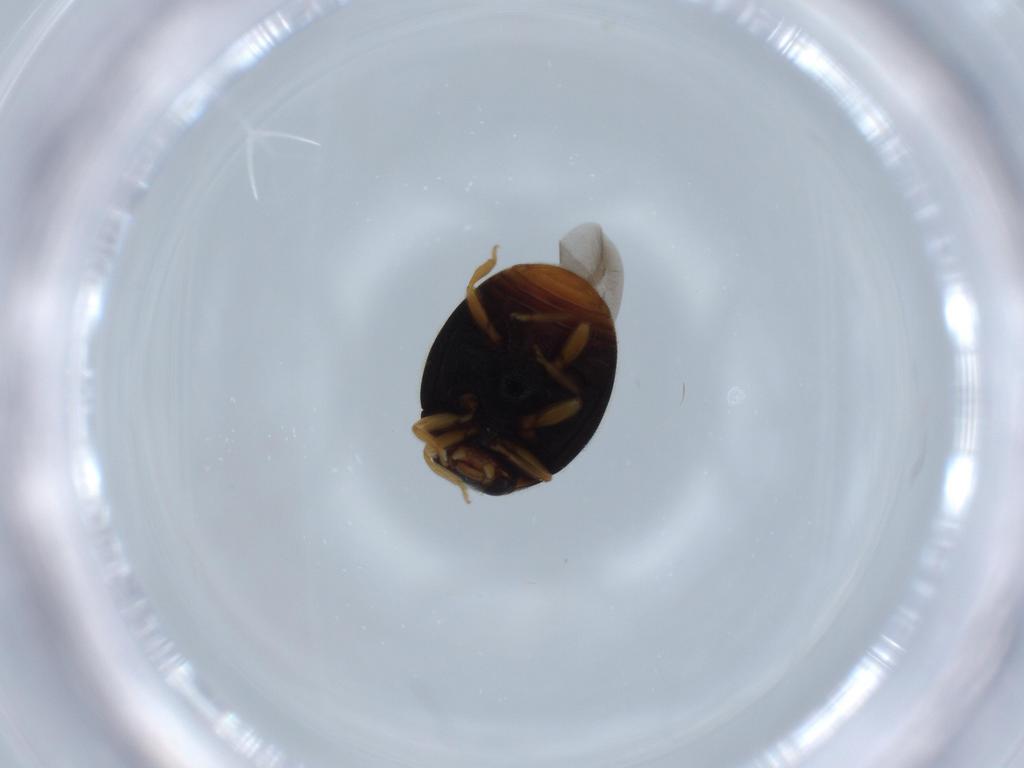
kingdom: Animalia
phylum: Arthropoda
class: Insecta
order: Coleoptera
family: Coccinellidae
